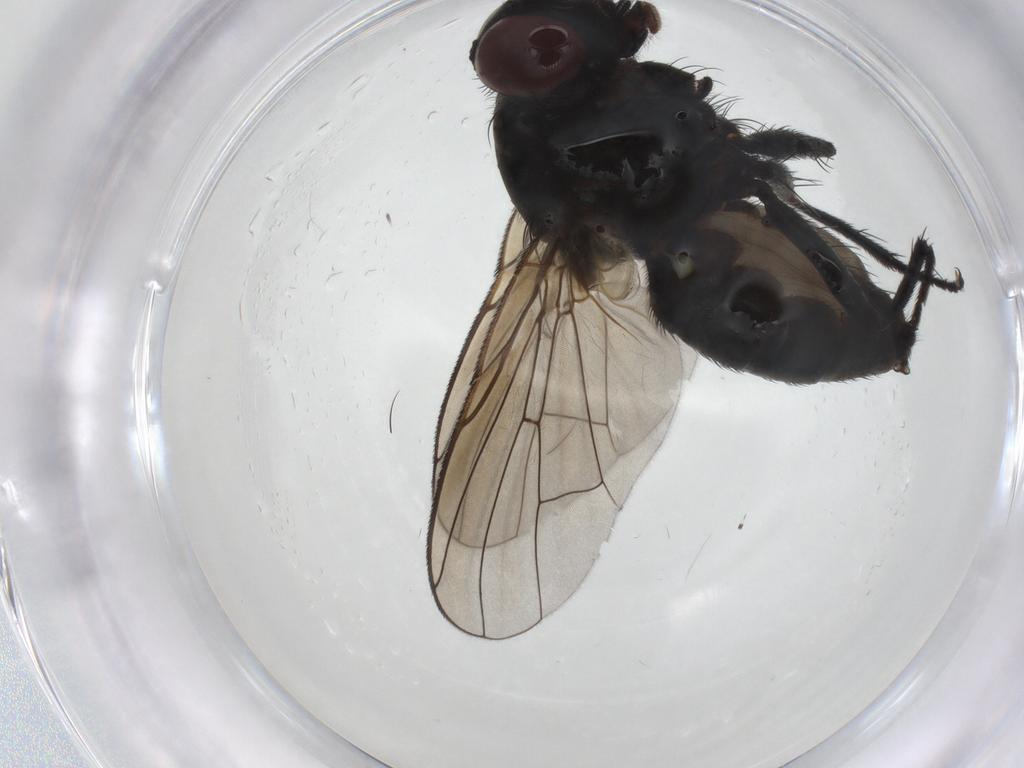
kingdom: Animalia
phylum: Arthropoda
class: Insecta
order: Diptera
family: Muscidae
